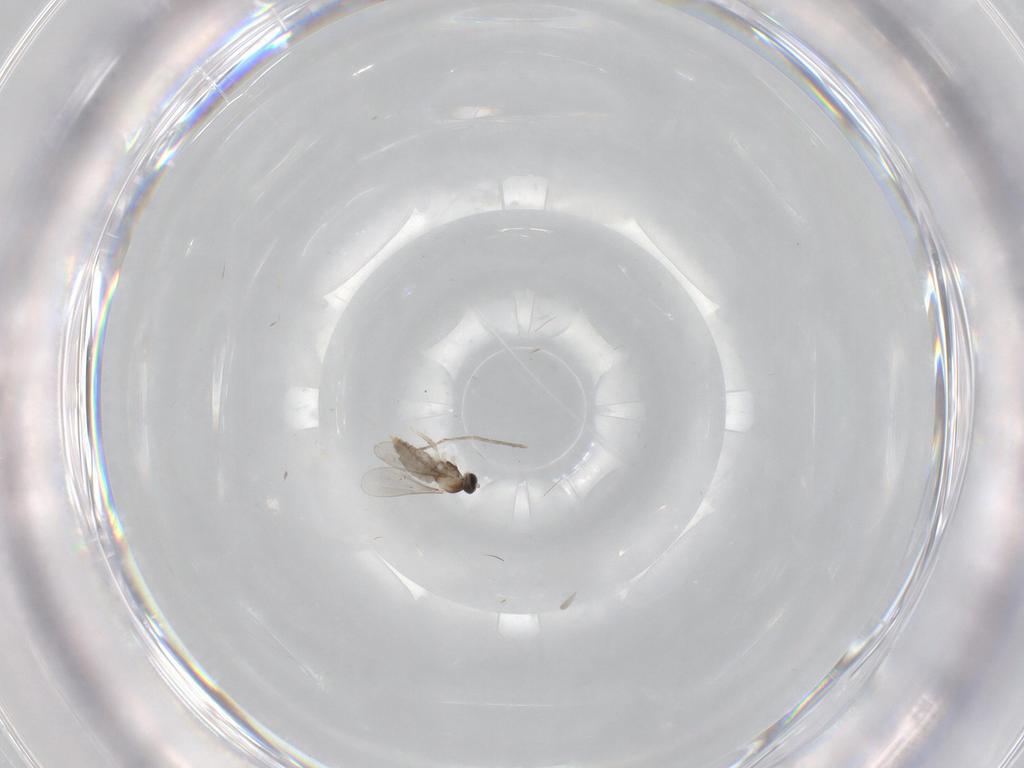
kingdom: Animalia
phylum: Arthropoda
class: Insecta
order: Diptera
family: Cecidomyiidae
